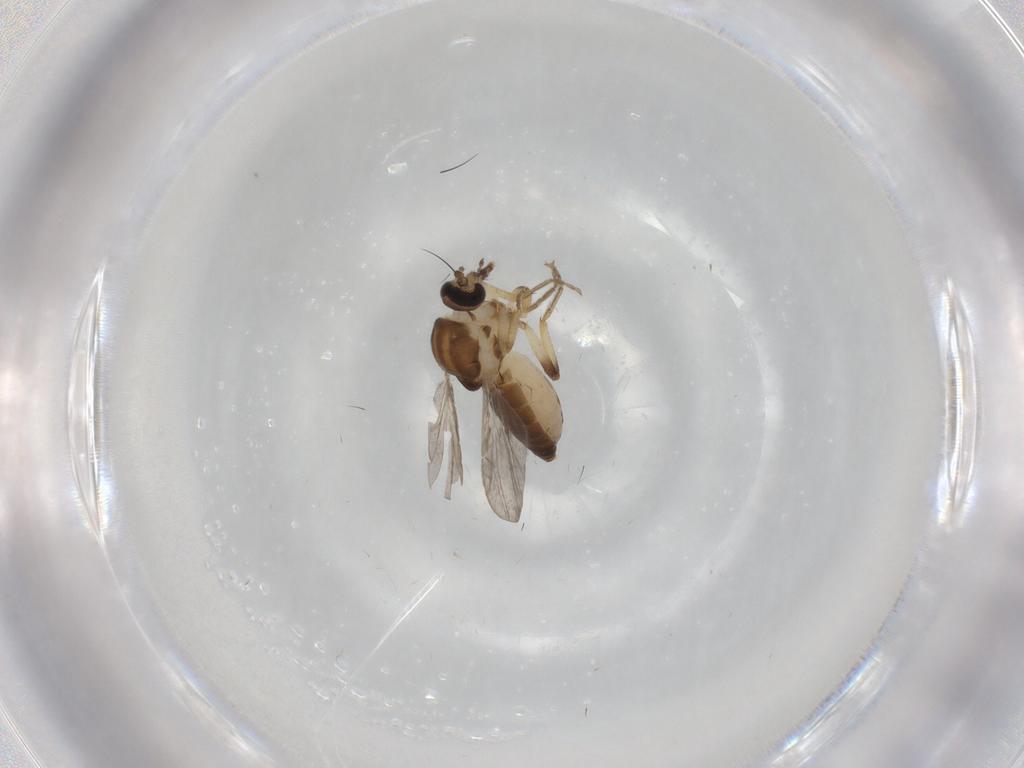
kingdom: Animalia
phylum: Arthropoda
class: Insecta
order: Diptera
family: Ceratopogonidae
